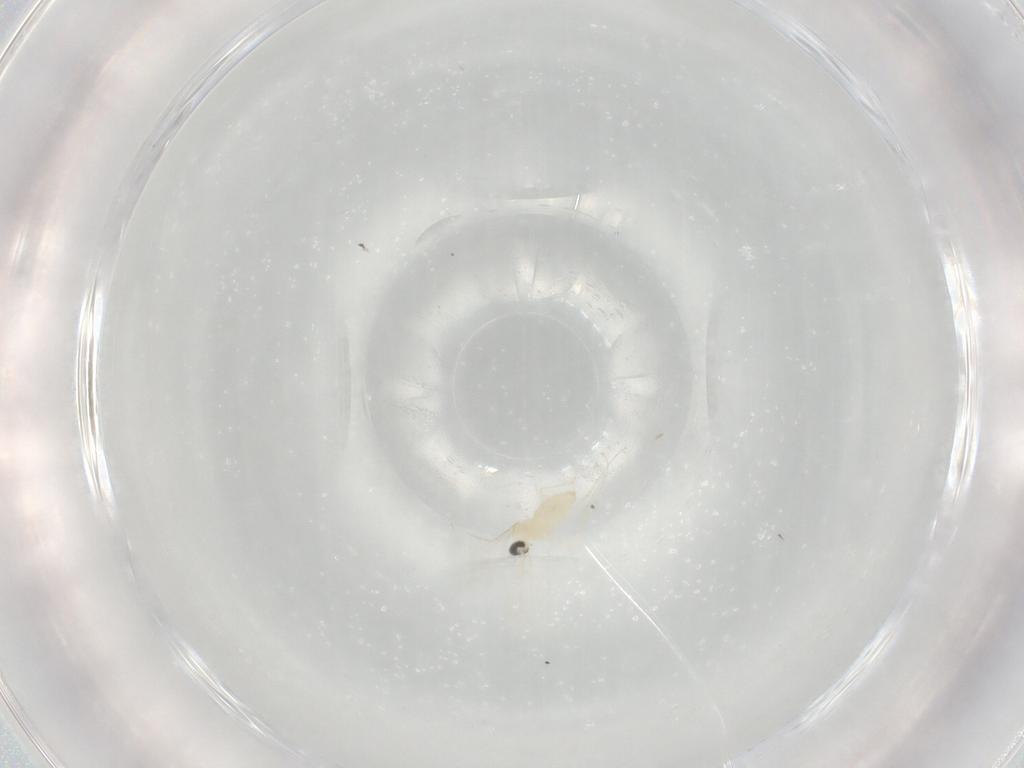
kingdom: Animalia
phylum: Arthropoda
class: Insecta
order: Diptera
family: Cecidomyiidae
